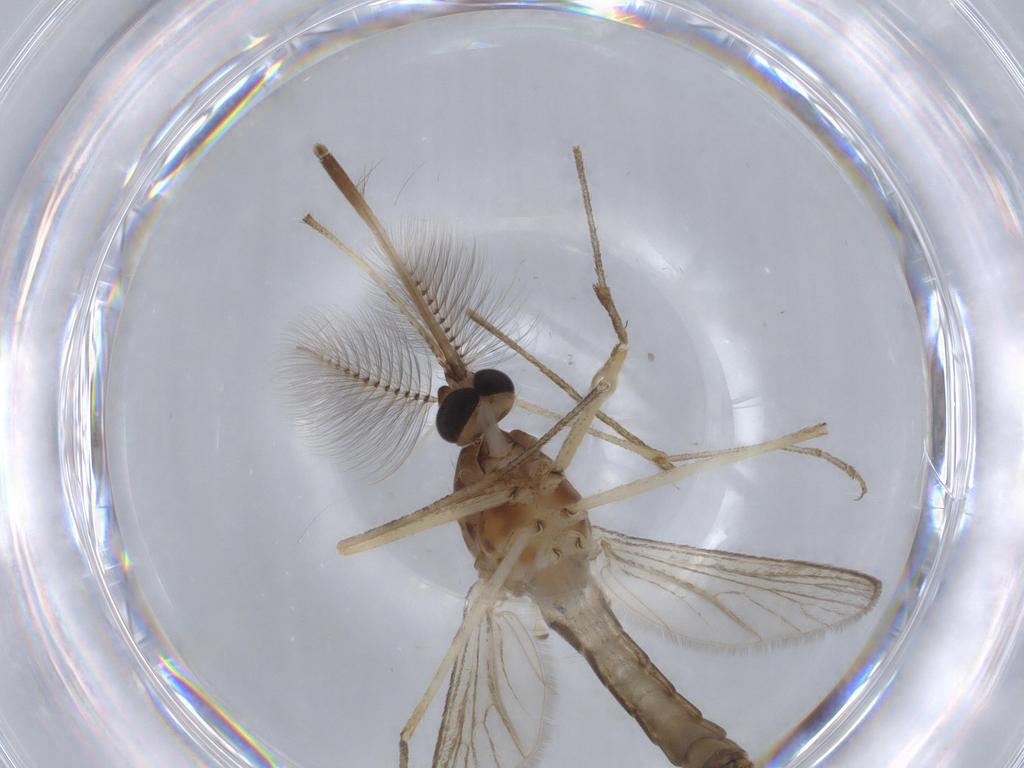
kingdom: Animalia
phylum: Arthropoda
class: Insecta
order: Diptera
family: Culicidae
